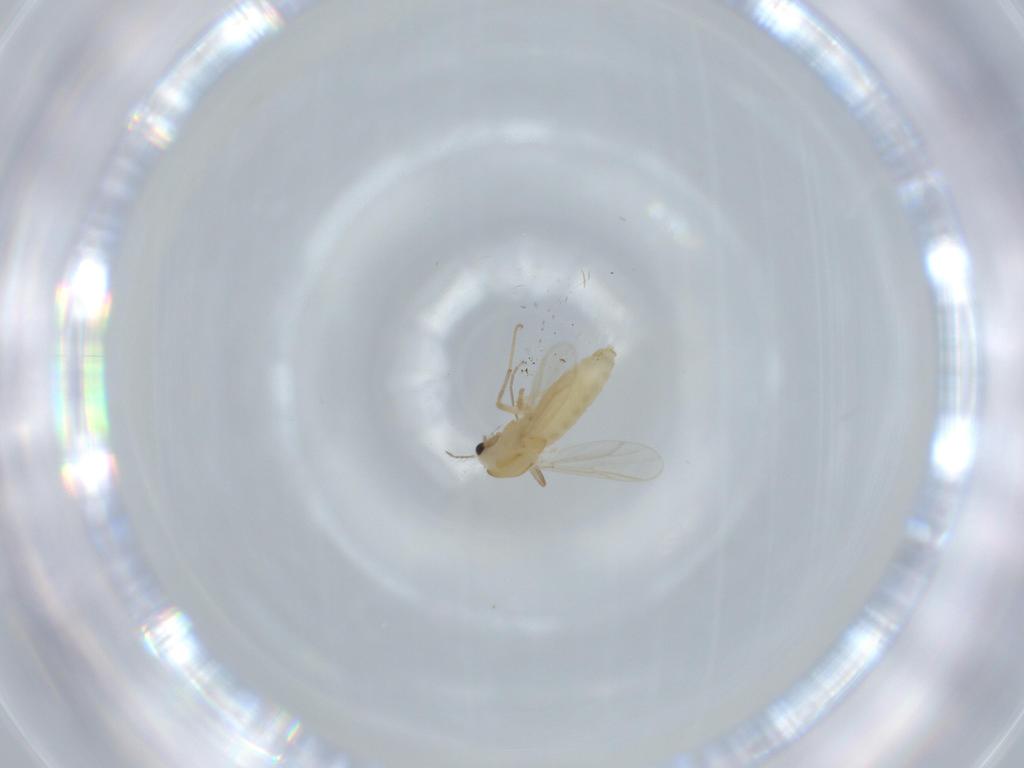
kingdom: Animalia
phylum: Arthropoda
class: Insecta
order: Diptera
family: Chironomidae
